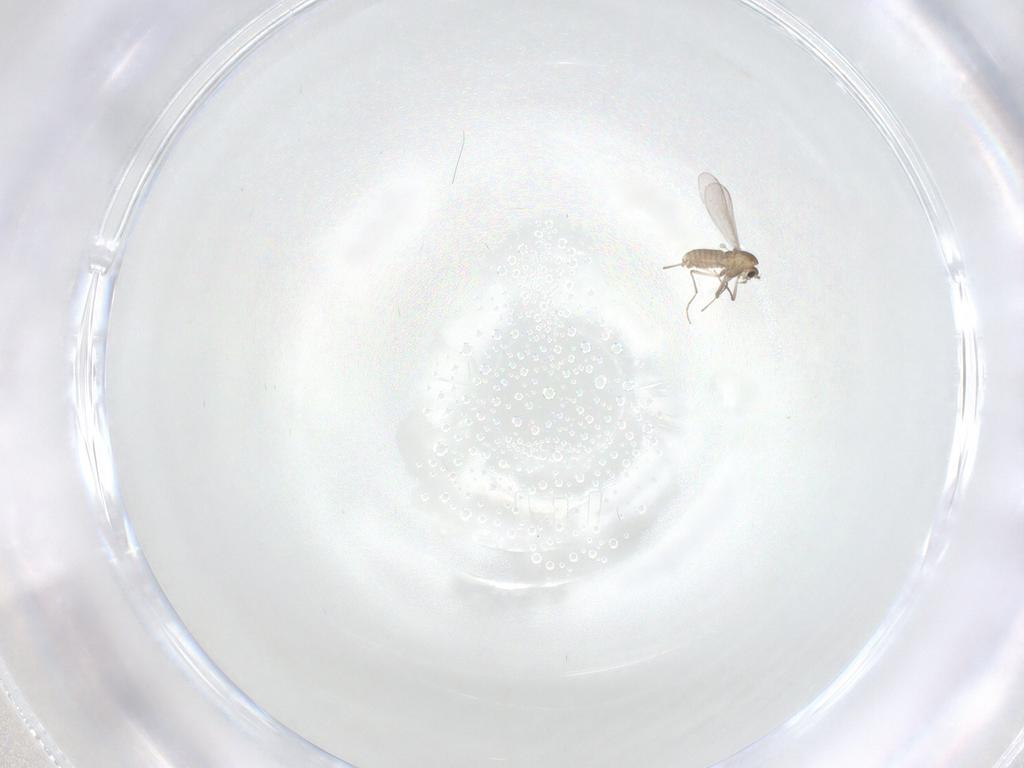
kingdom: Animalia
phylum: Arthropoda
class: Insecta
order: Diptera
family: Chironomidae
